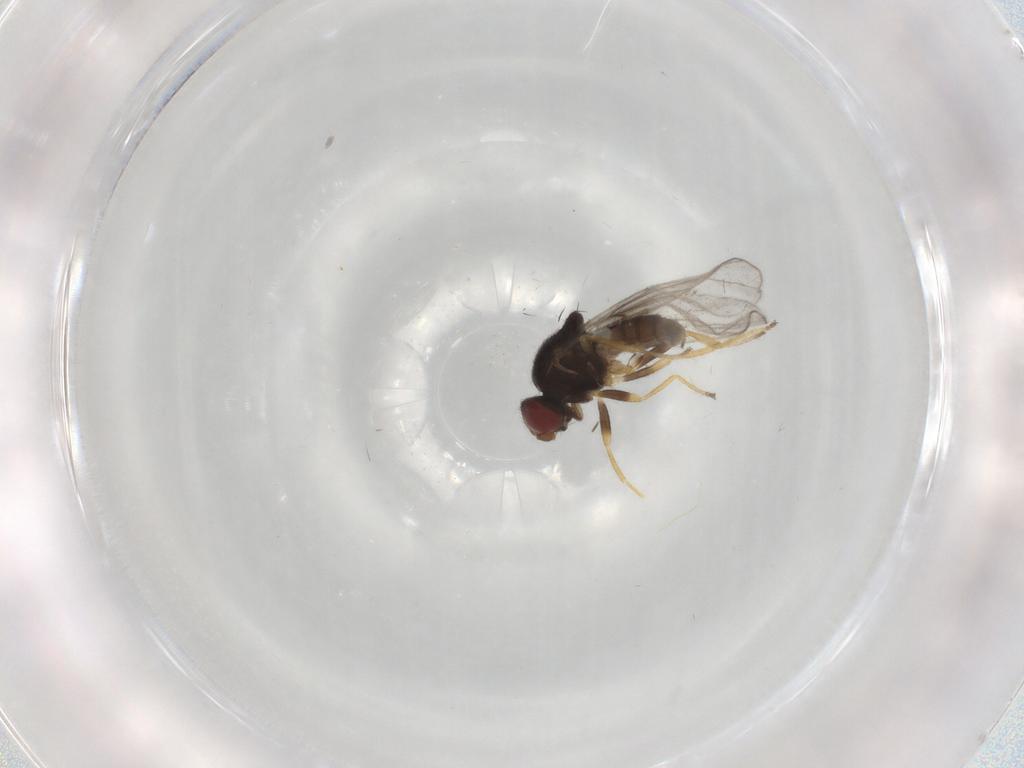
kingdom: Animalia
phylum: Arthropoda
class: Insecta
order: Diptera
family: Chloropidae
